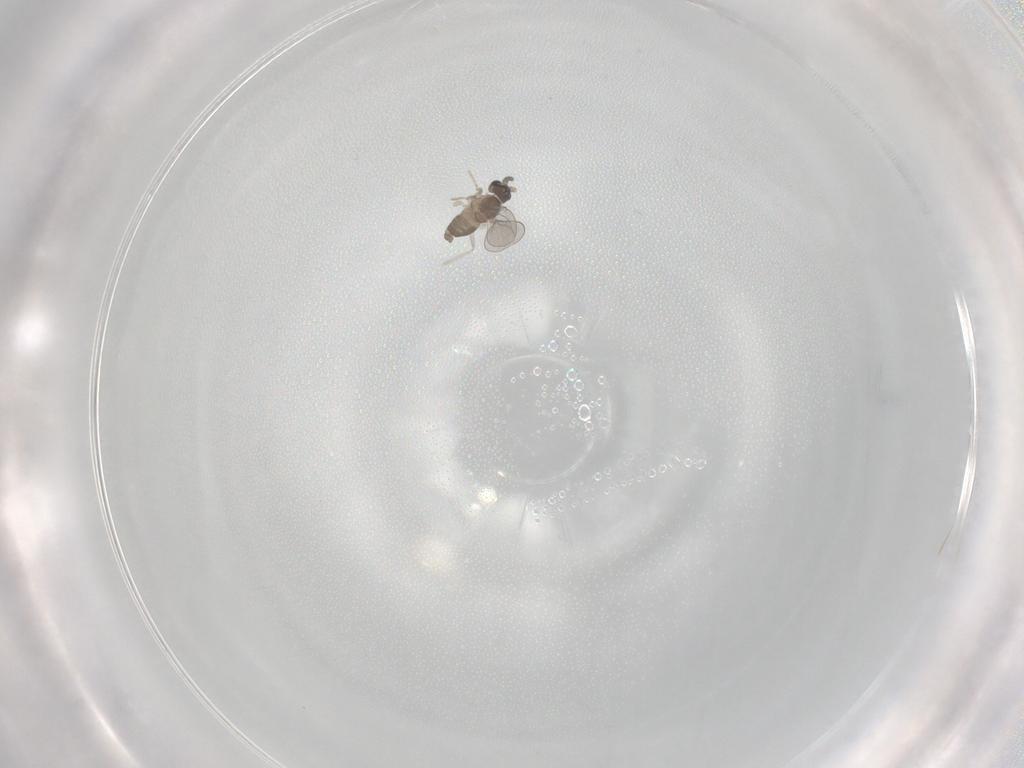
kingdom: Animalia
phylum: Arthropoda
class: Insecta
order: Diptera
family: Cecidomyiidae
